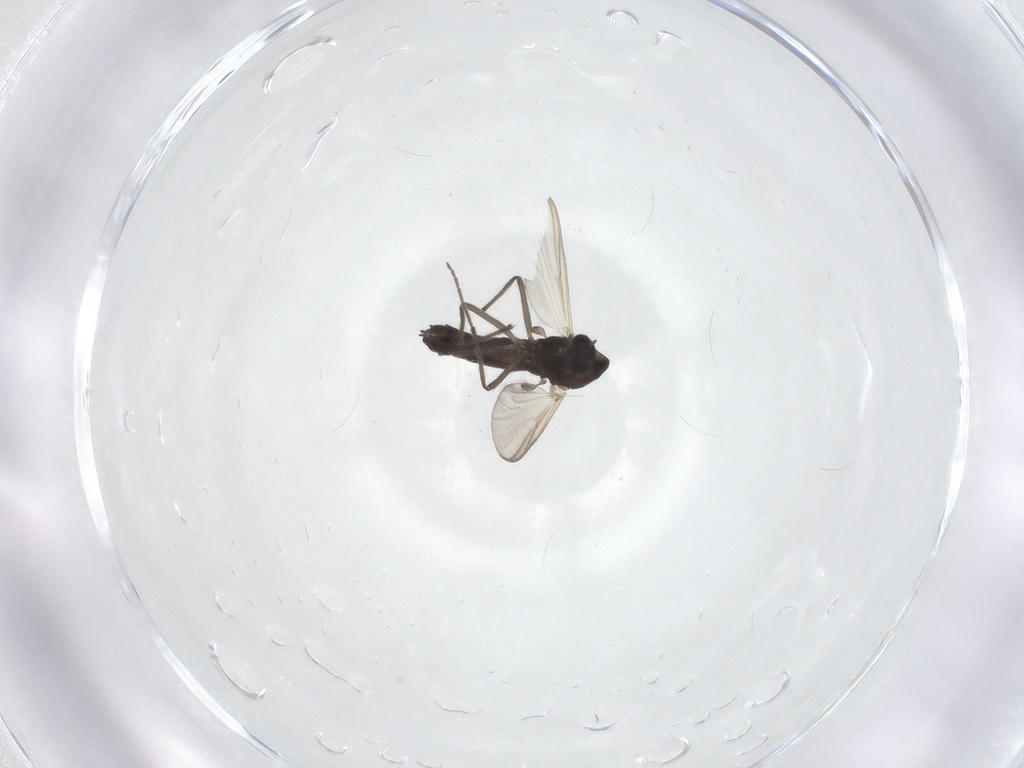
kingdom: Animalia
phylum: Arthropoda
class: Insecta
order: Diptera
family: Chironomidae
